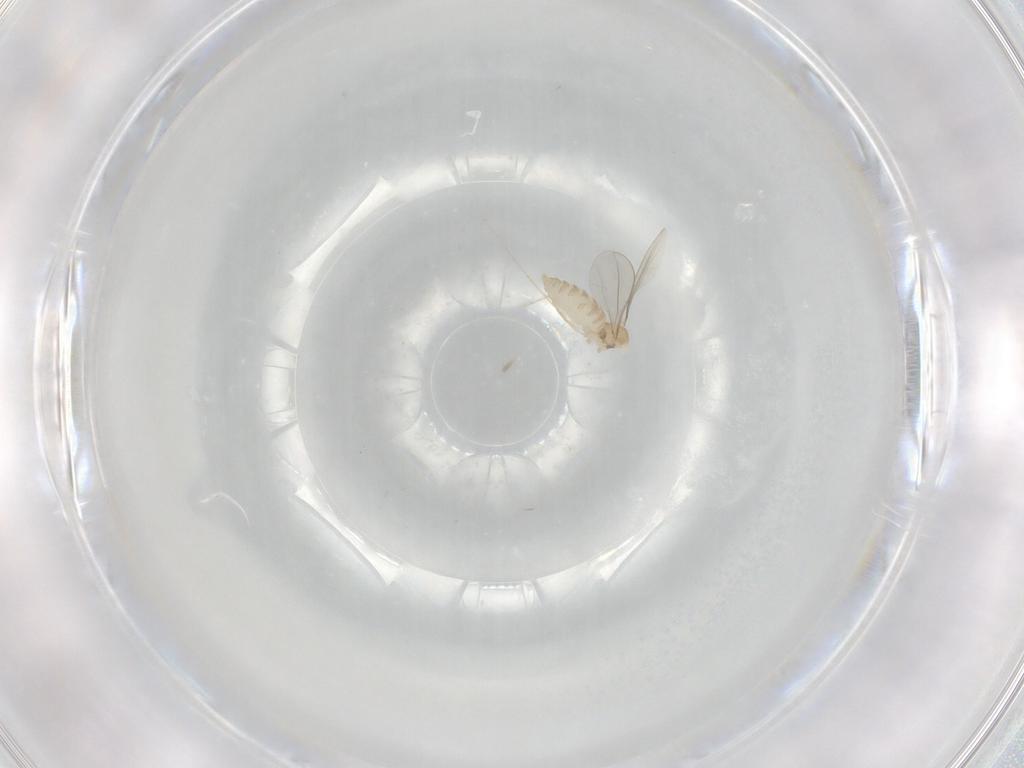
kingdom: Animalia
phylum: Arthropoda
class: Insecta
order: Diptera
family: Cecidomyiidae
